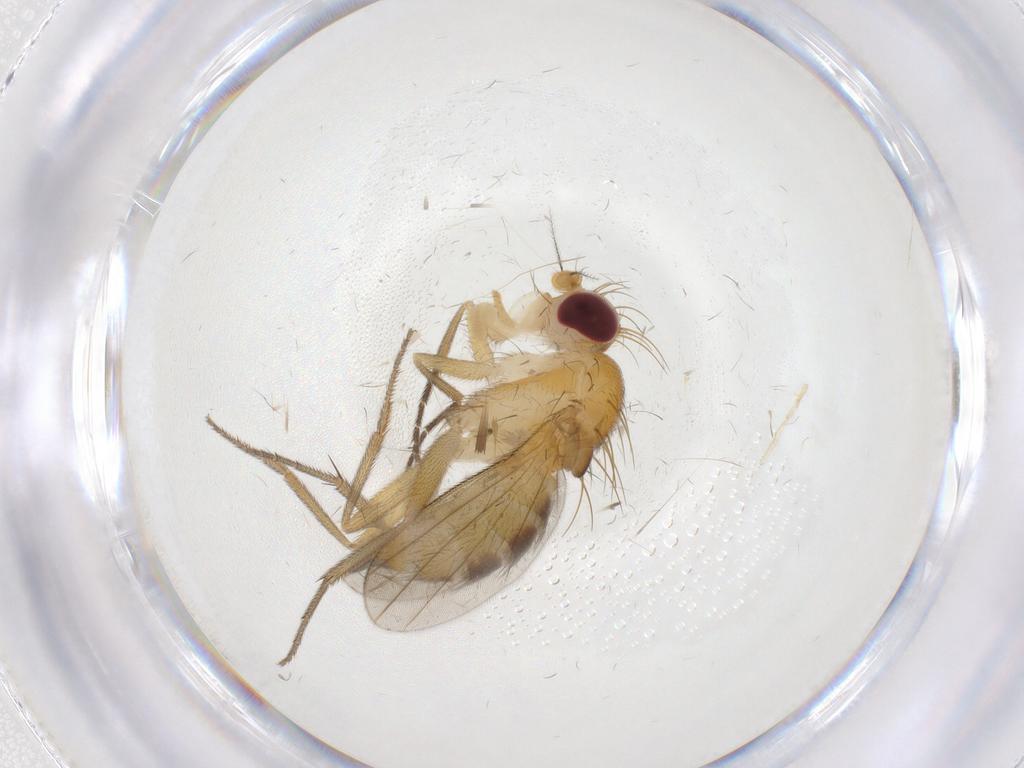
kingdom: Animalia
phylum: Arthropoda
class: Insecta
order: Diptera
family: Clusiidae
